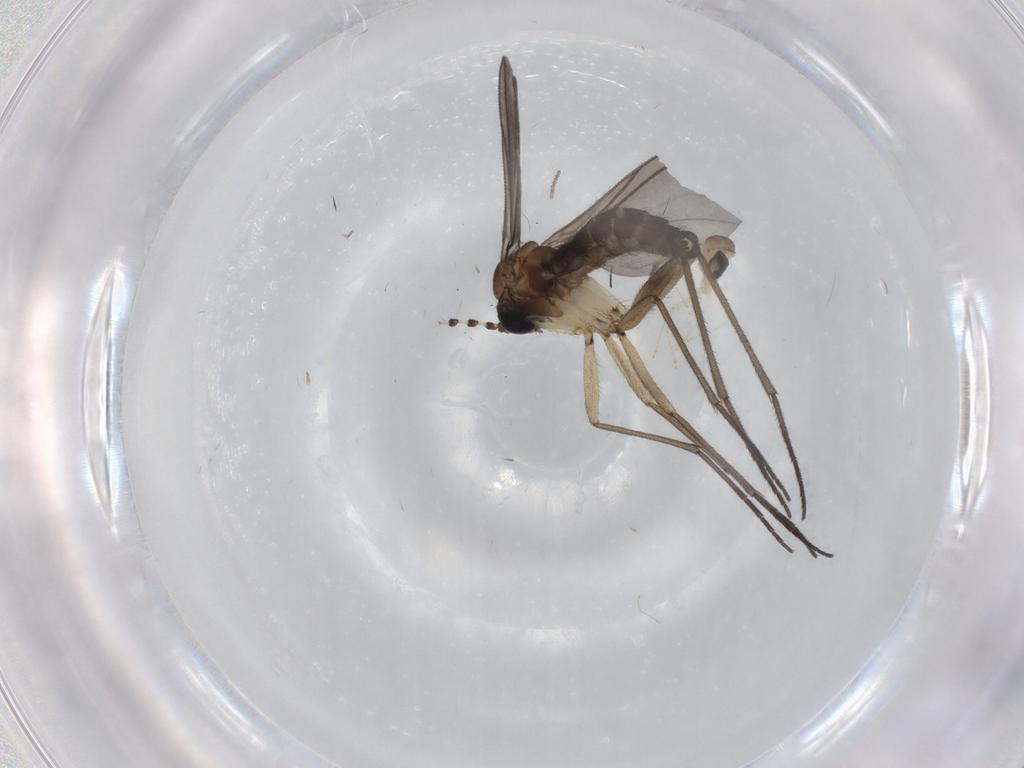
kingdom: Animalia
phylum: Arthropoda
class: Insecta
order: Diptera
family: Sciaridae
